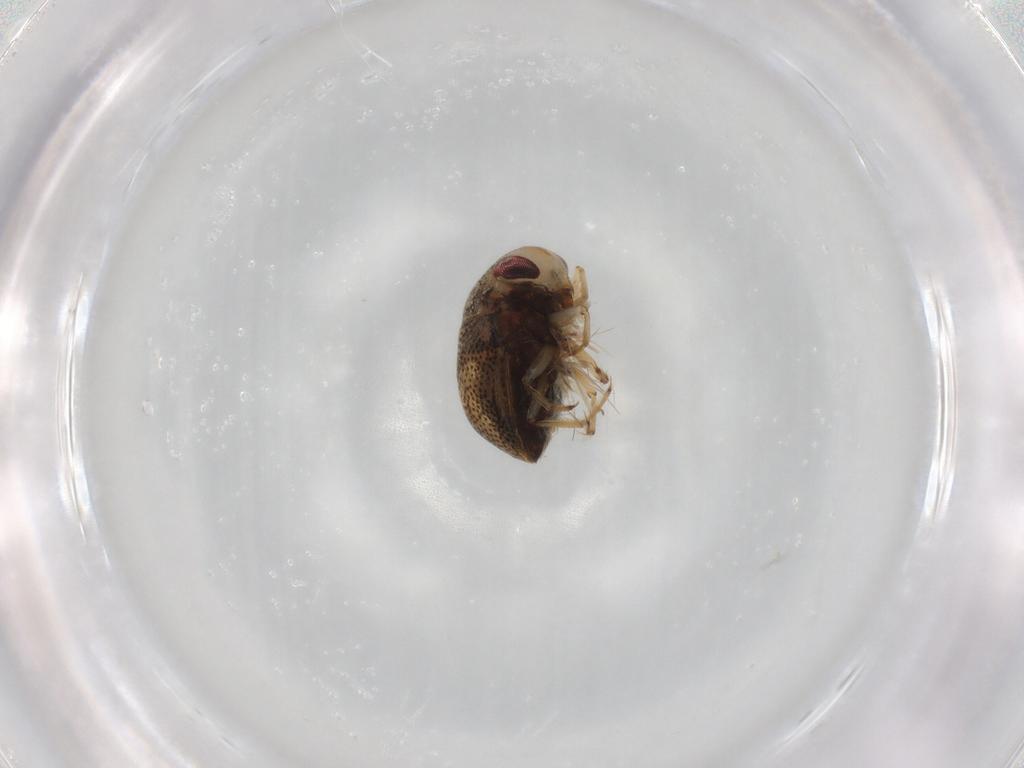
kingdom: Animalia
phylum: Arthropoda
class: Insecta
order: Hemiptera
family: Pleidae
